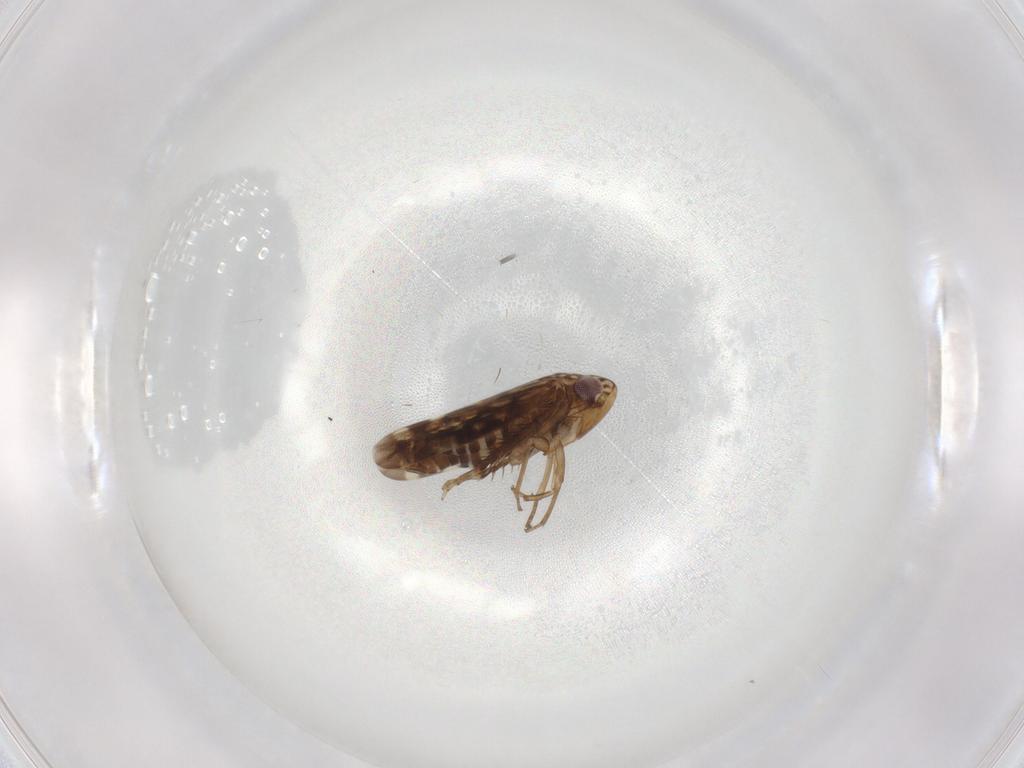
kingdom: Animalia
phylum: Arthropoda
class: Insecta
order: Hemiptera
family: Cicadellidae
